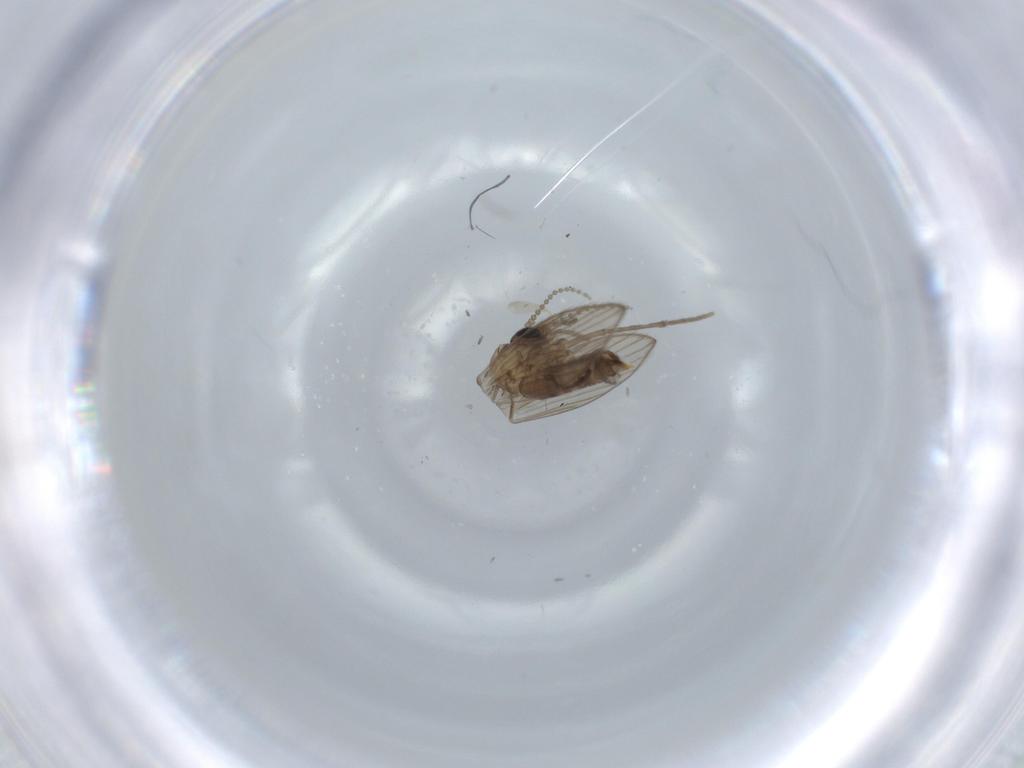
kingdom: Animalia
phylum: Arthropoda
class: Insecta
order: Diptera
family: Psychodidae
